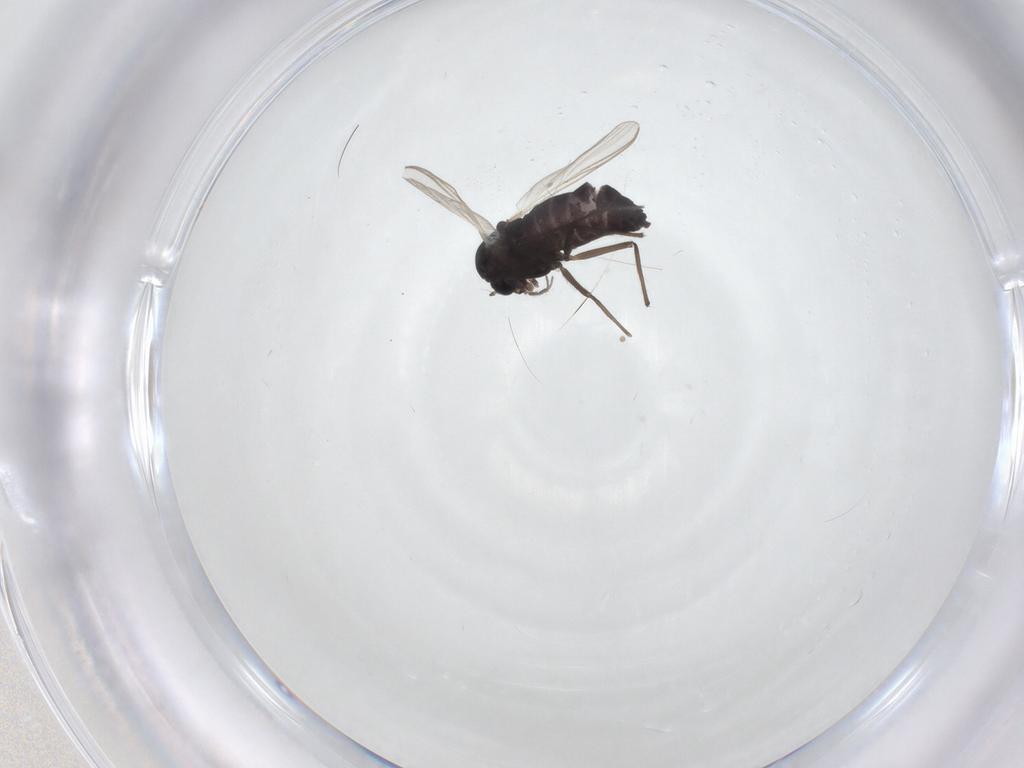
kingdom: Animalia
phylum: Arthropoda
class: Insecta
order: Diptera
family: Chironomidae
